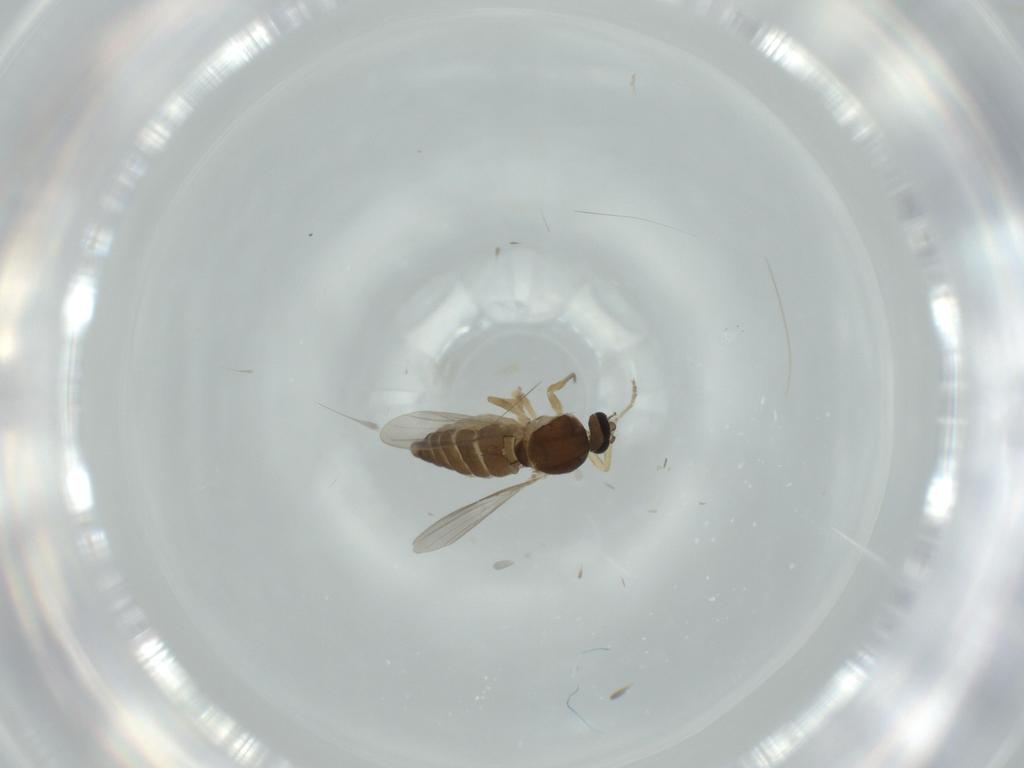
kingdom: Animalia
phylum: Arthropoda
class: Insecta
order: Diptera
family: Ceratopogonidae
